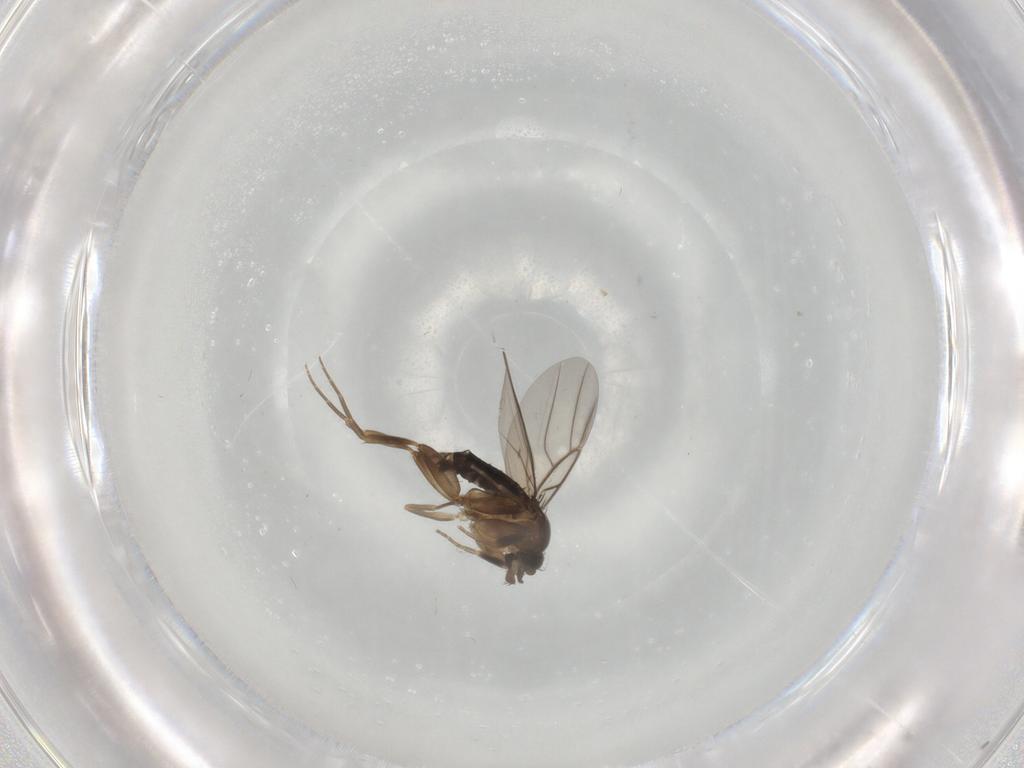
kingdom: Animalia
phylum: Arthropoda
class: Insecta
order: Diptera
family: Phoridae
